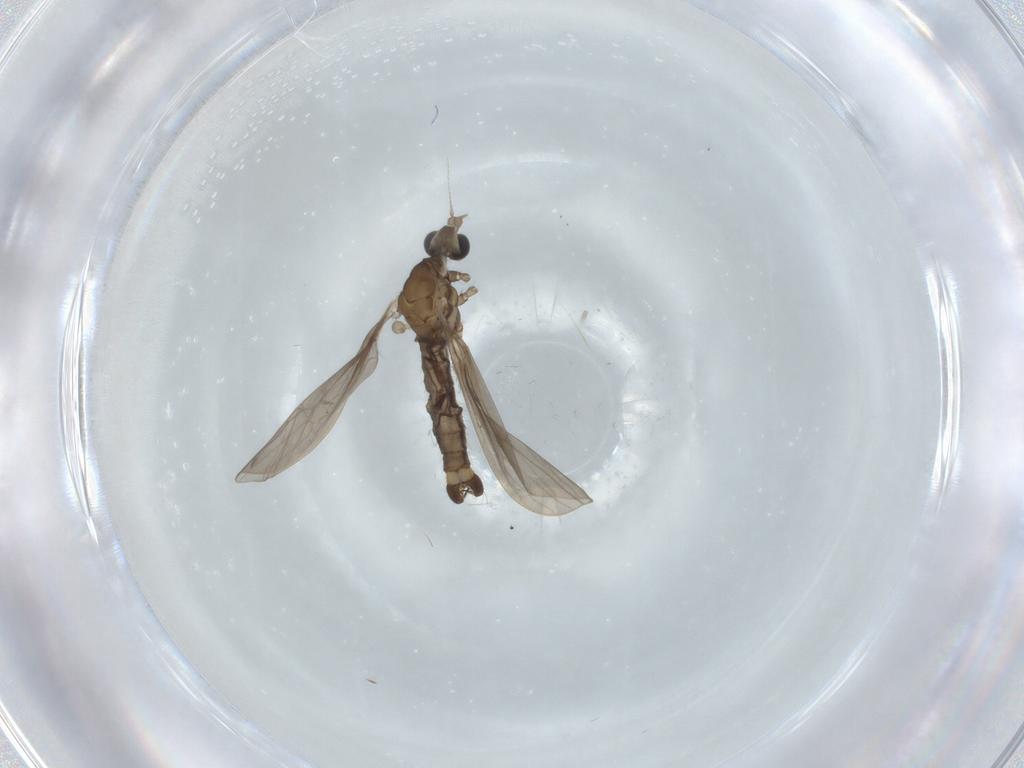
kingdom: Animalia
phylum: Arthropoda
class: Insecta
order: Diptera
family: Limoniidae
